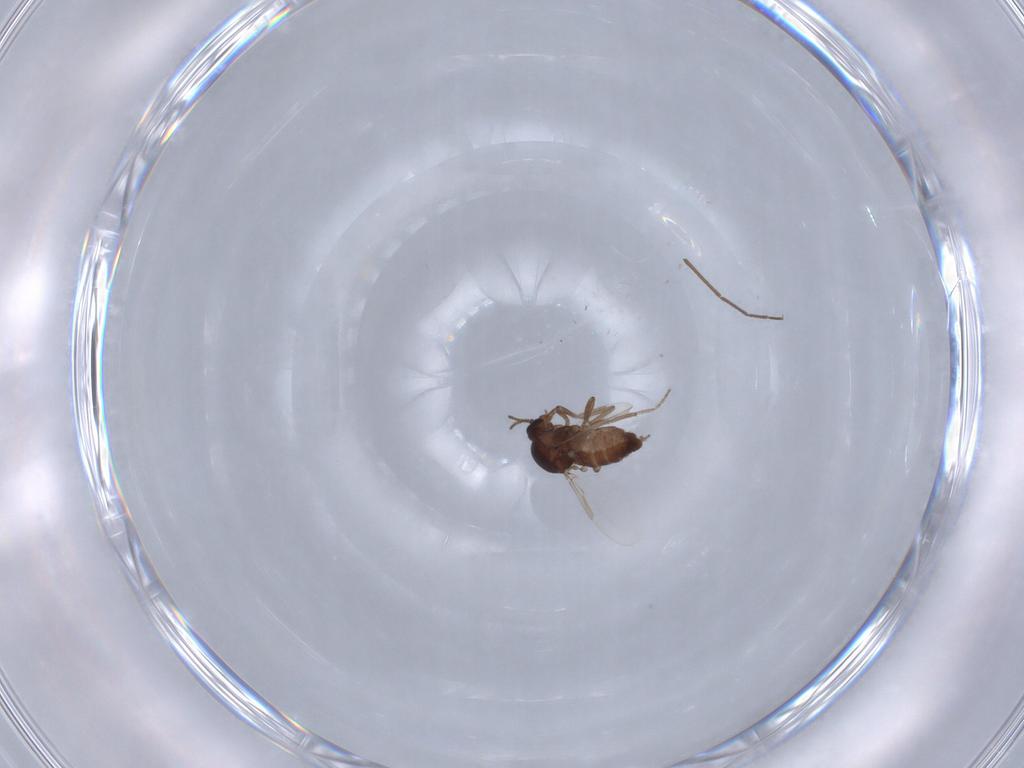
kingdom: Animalia
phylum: Arthropoda
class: Insecta
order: Diptera
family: Ceratopogonidae
